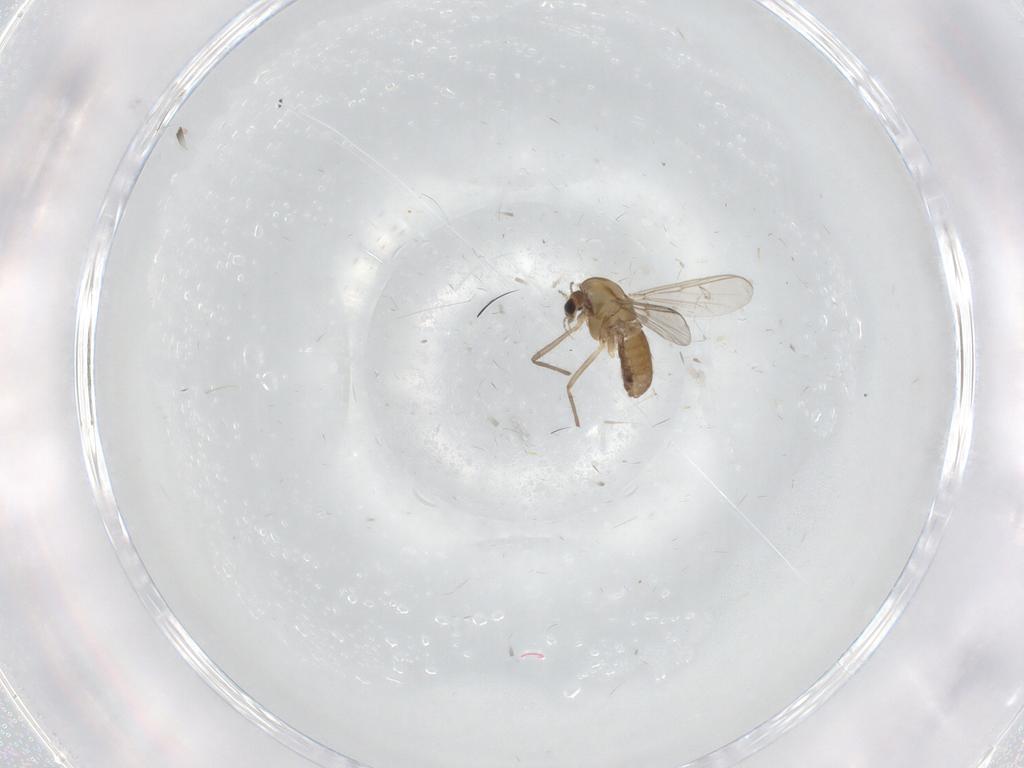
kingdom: Animalia
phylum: Arthropoda
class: Insecta
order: Diptera
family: Chironomidae
